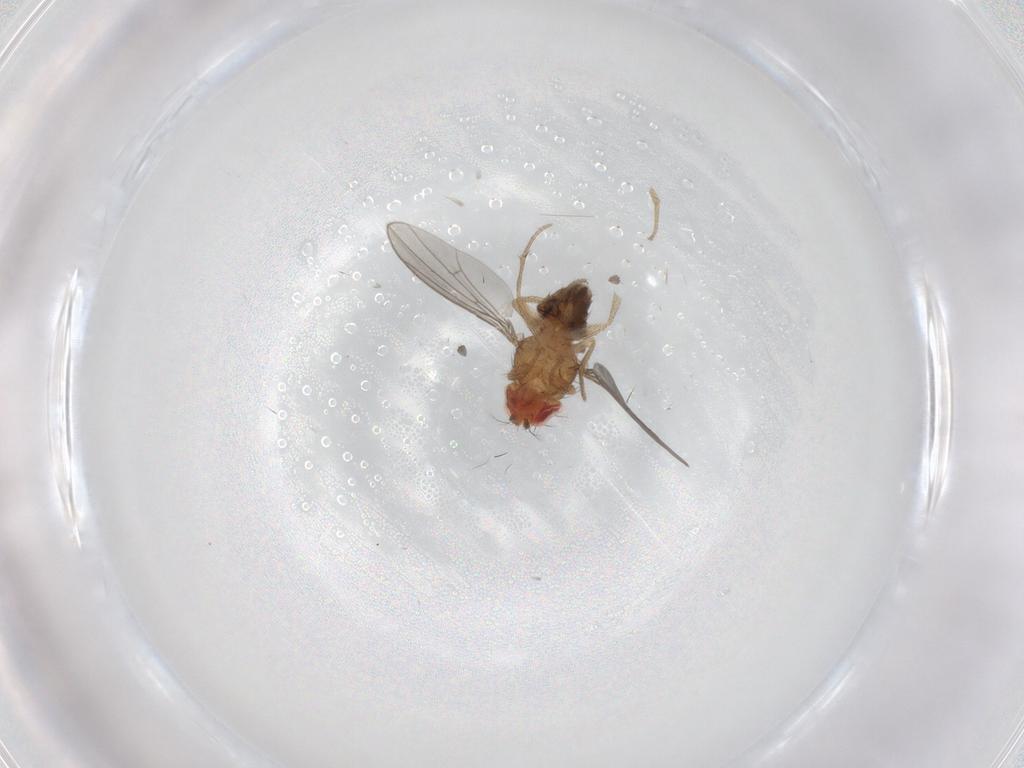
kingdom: Animalia
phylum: Arthropoda
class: Insecta
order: Diptera
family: Drosophilidae
